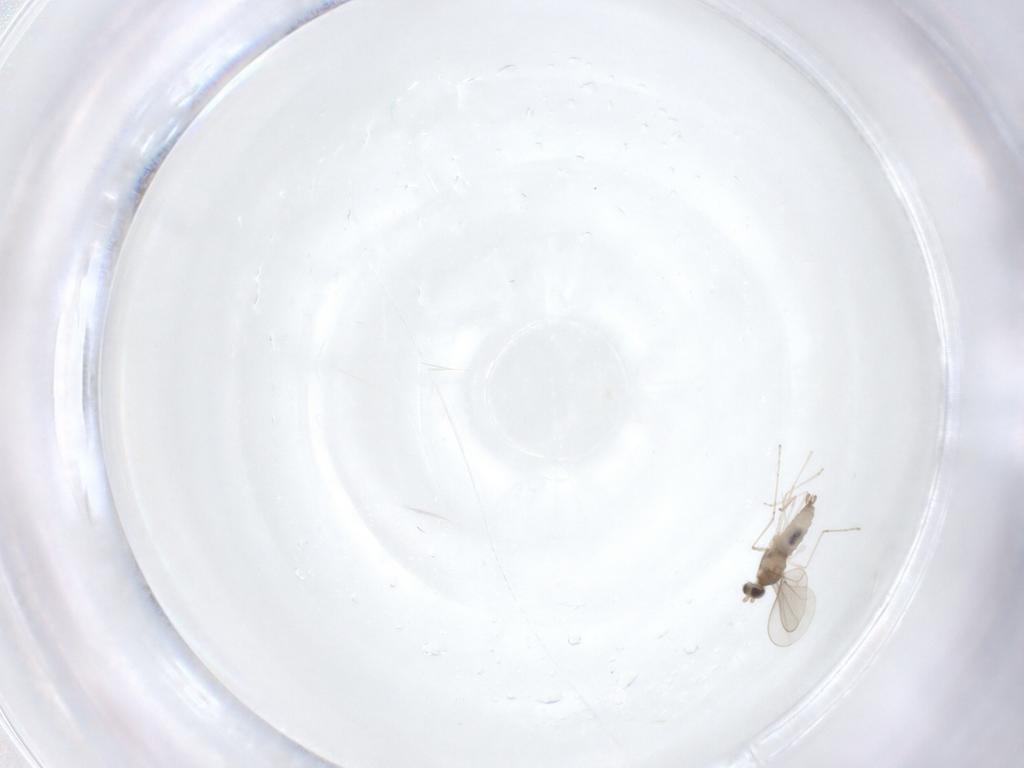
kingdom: Animalia
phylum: Arthropoda
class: Insecta
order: Diptera
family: Cecidomyiidae
